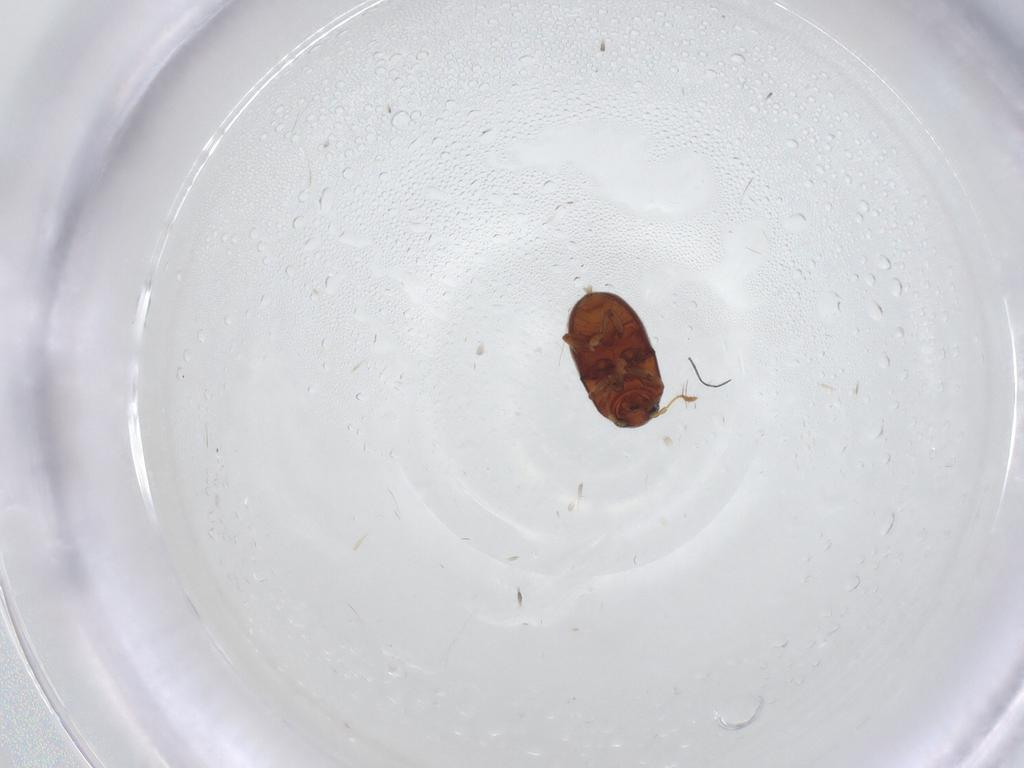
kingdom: Animalia
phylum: Arthropoda
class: Insecta
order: Coleoptera
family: Scarabaeidae
